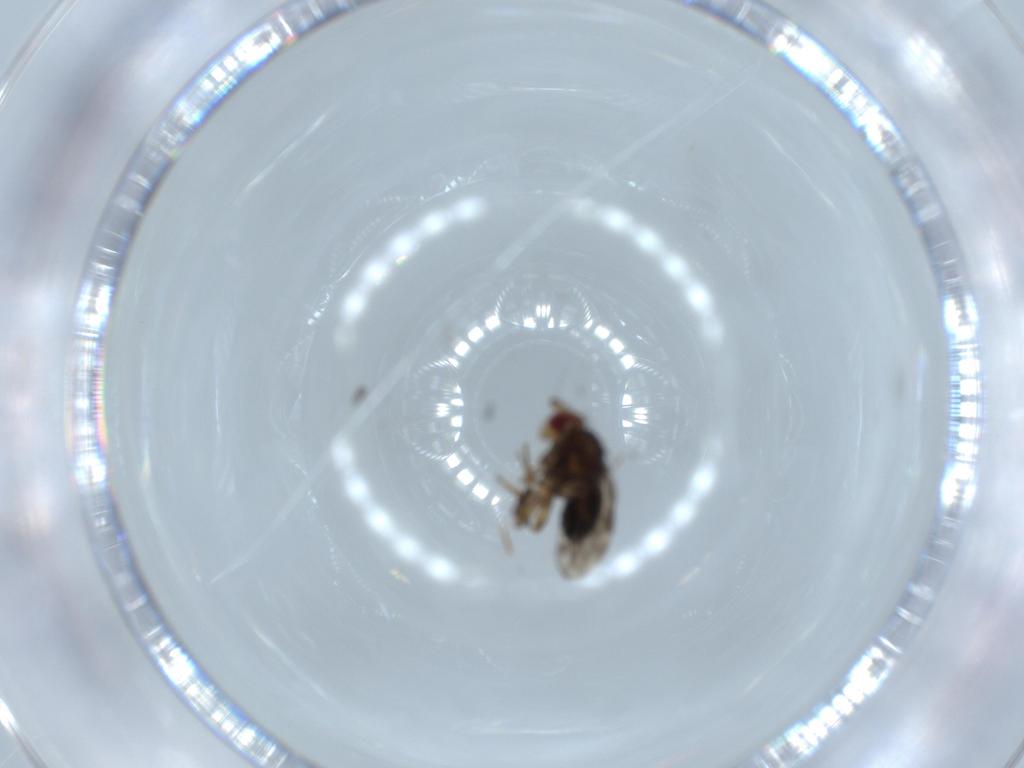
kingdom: Animalia
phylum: Arthropoda
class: Insecta
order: Diptera
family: Sphaeroceridae
